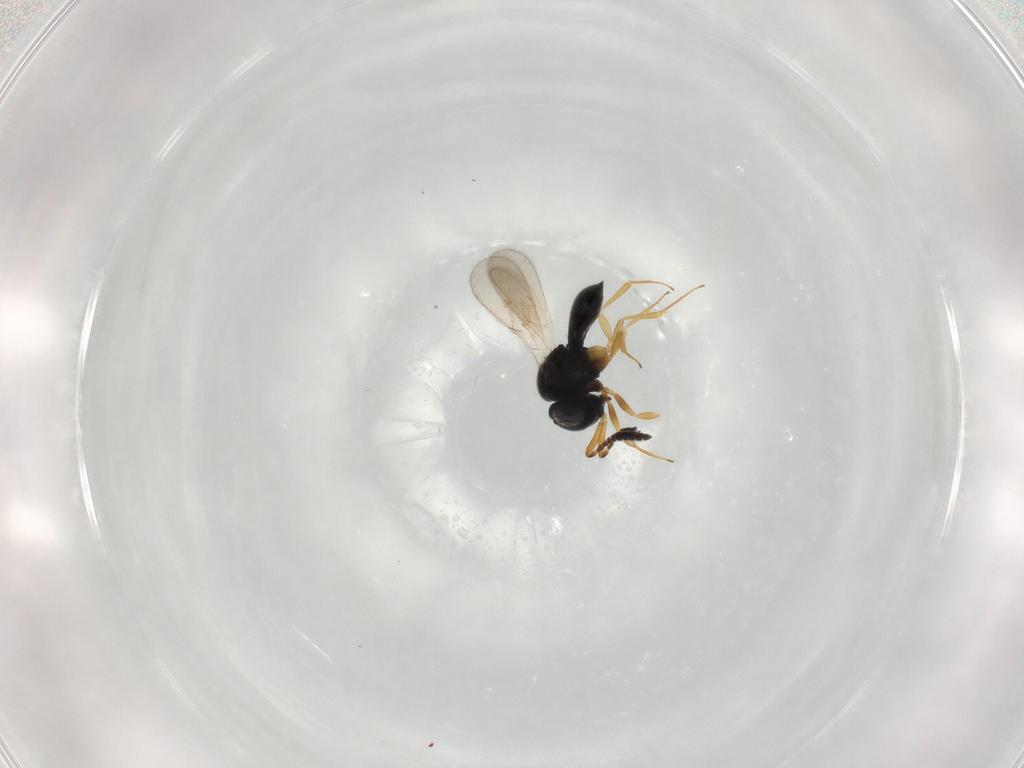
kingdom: Animalia
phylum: Arthropoda
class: Insecta
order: Hymenoptera
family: Scelionidae
